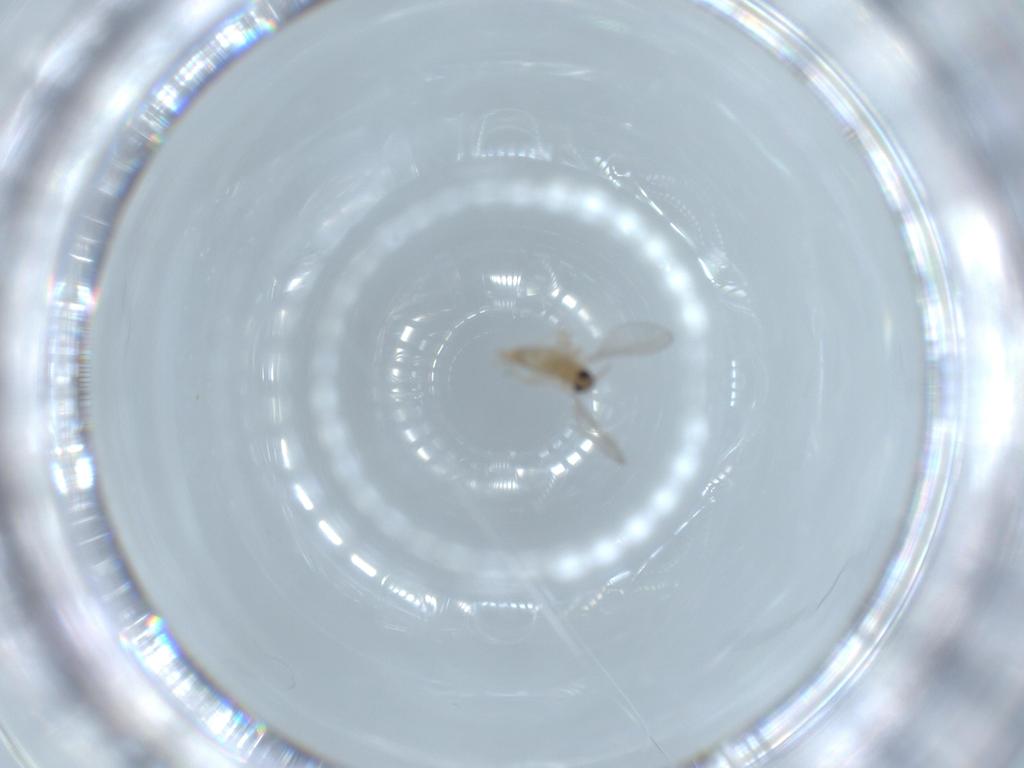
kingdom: Animalia
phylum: Arthropoda
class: Insecta
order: Diptera
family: Cecidomyiidae
